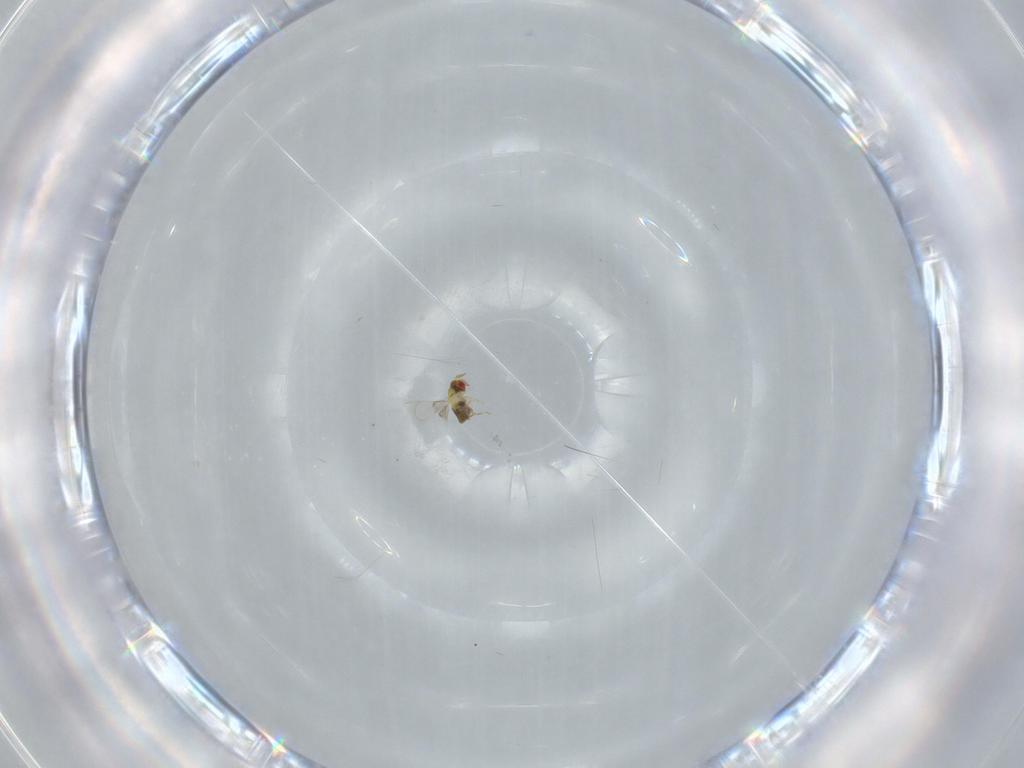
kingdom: Animalia
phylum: Arthropoda
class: Insecta
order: Hymenoptera
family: Trichogrammatidae
